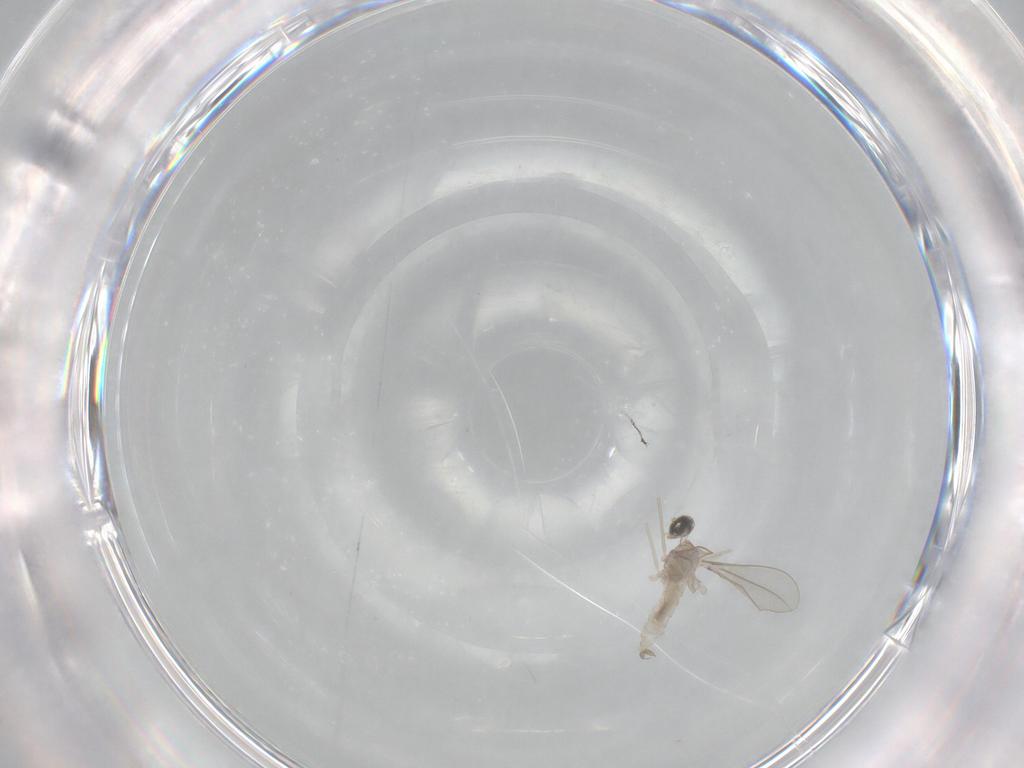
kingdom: Animalia
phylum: Arthropoda
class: Insecta
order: Diptera
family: Cecidomyiidae
